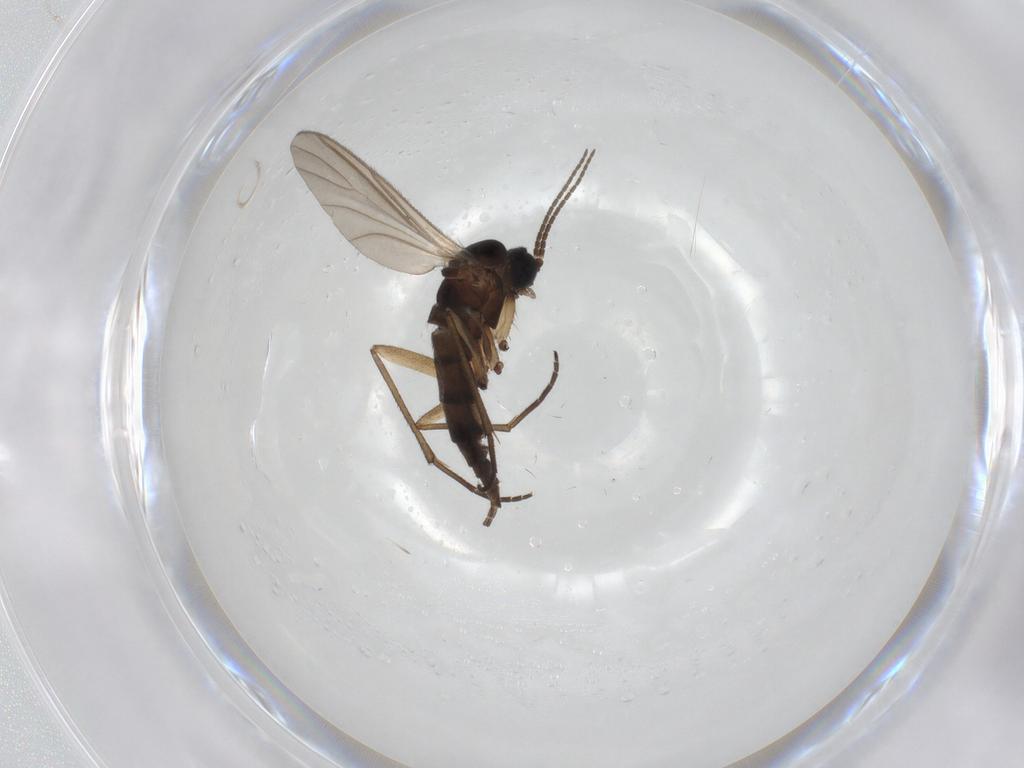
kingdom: Animalia
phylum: Arthropoda
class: Insecta
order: Diptera
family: Sciaridae
